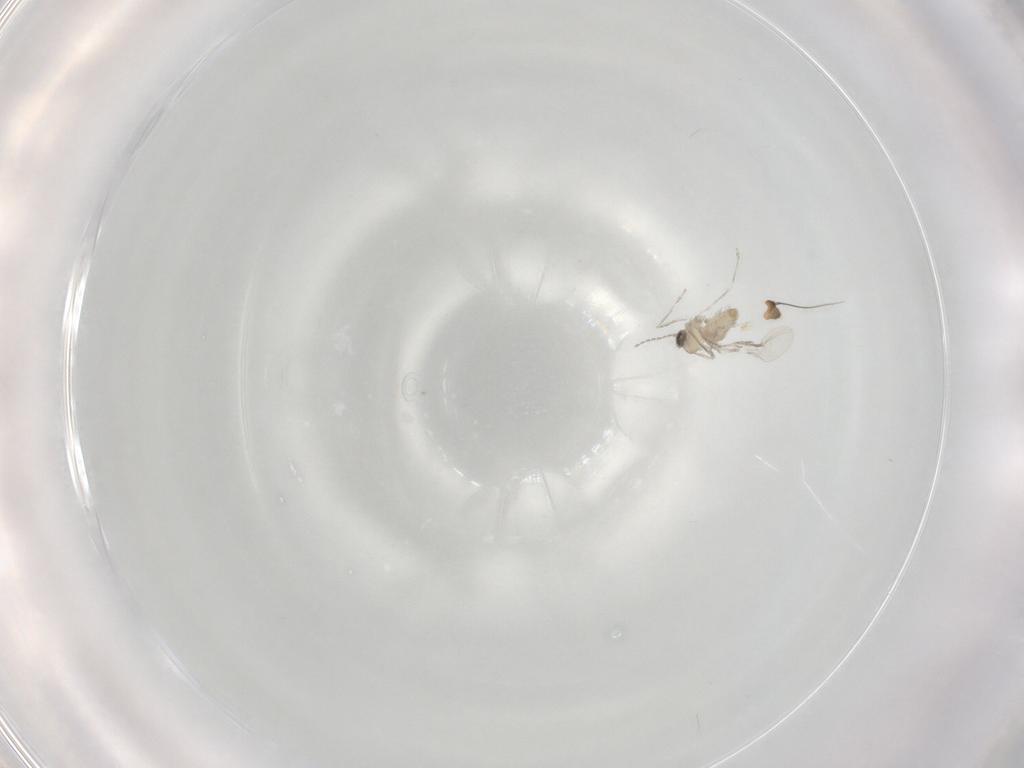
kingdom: Animalia
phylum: Arthropoda
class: Insecta
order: Diptera
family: Cecidomyiidae
